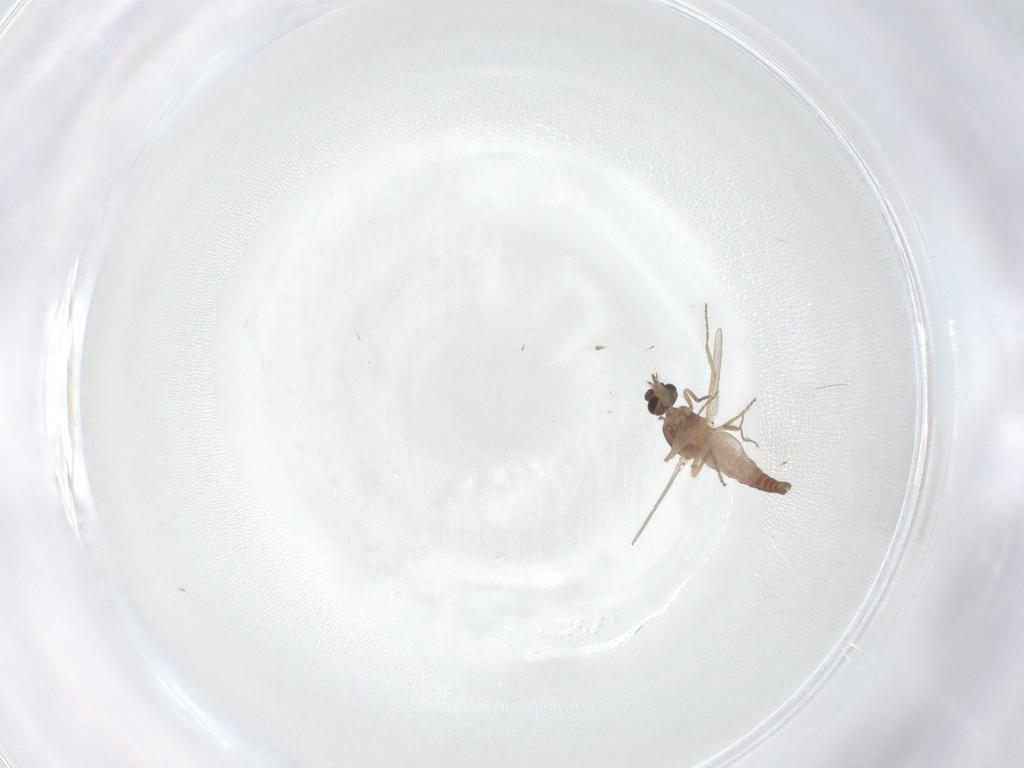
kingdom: Animalia
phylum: Arthropoda
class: Insecta
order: Diptera
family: Ceratopogonidae
